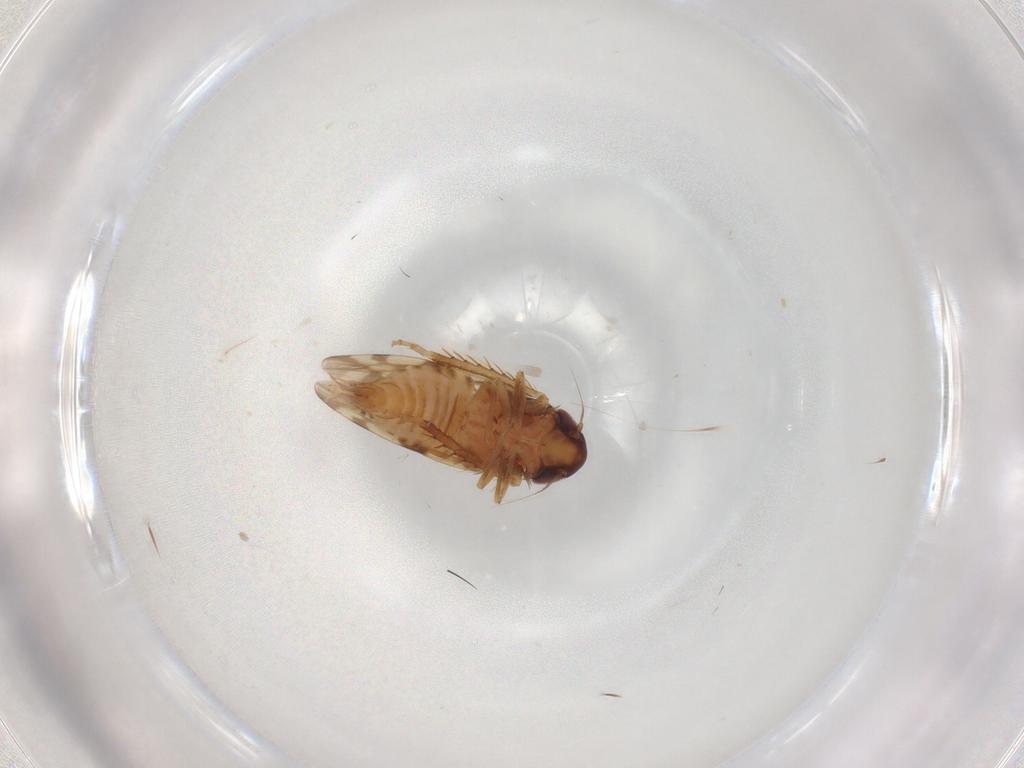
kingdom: Animalia
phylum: Arthropoda
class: Insecta
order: Hemiptera
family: Cicadellidae
